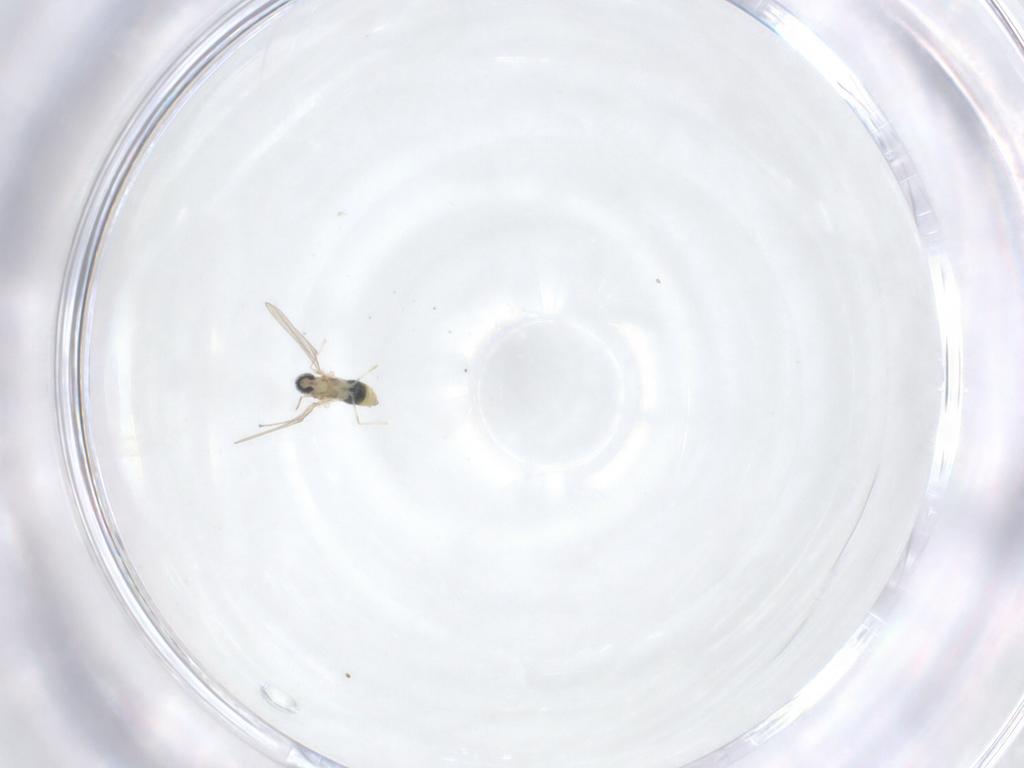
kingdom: Animalia
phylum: Arthropoda
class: Insecta
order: Diptera
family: Cecidomyiidae
